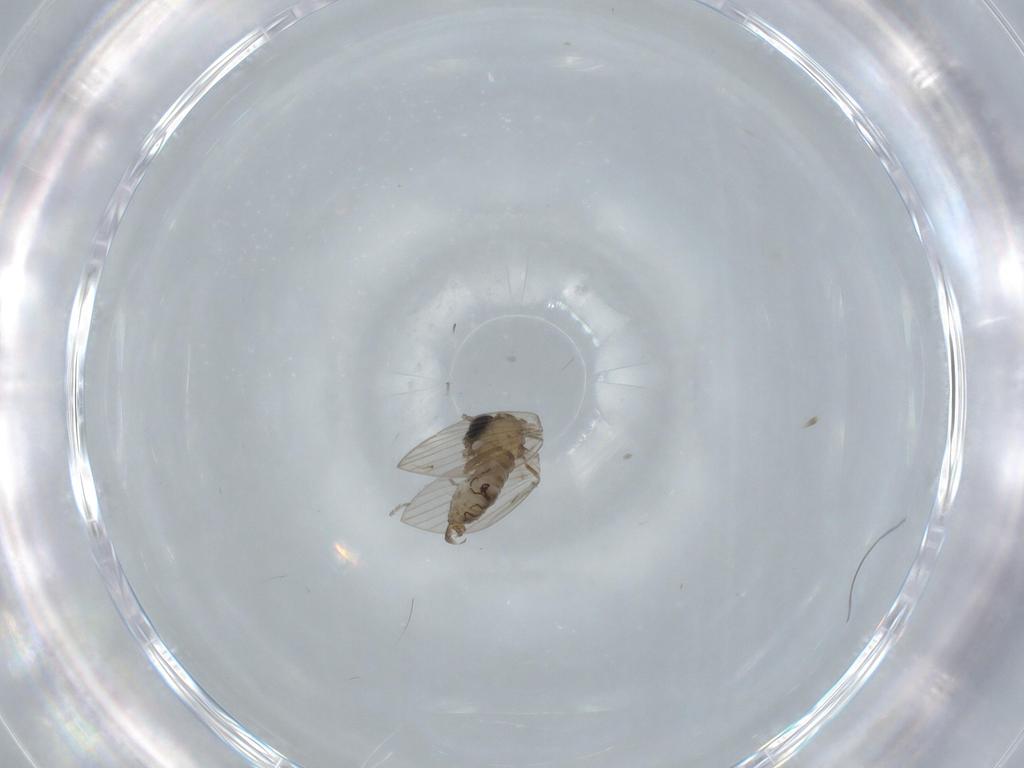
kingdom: Animalia
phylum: Arthropoda
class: Insecta
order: Diptera
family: Psychodidae
